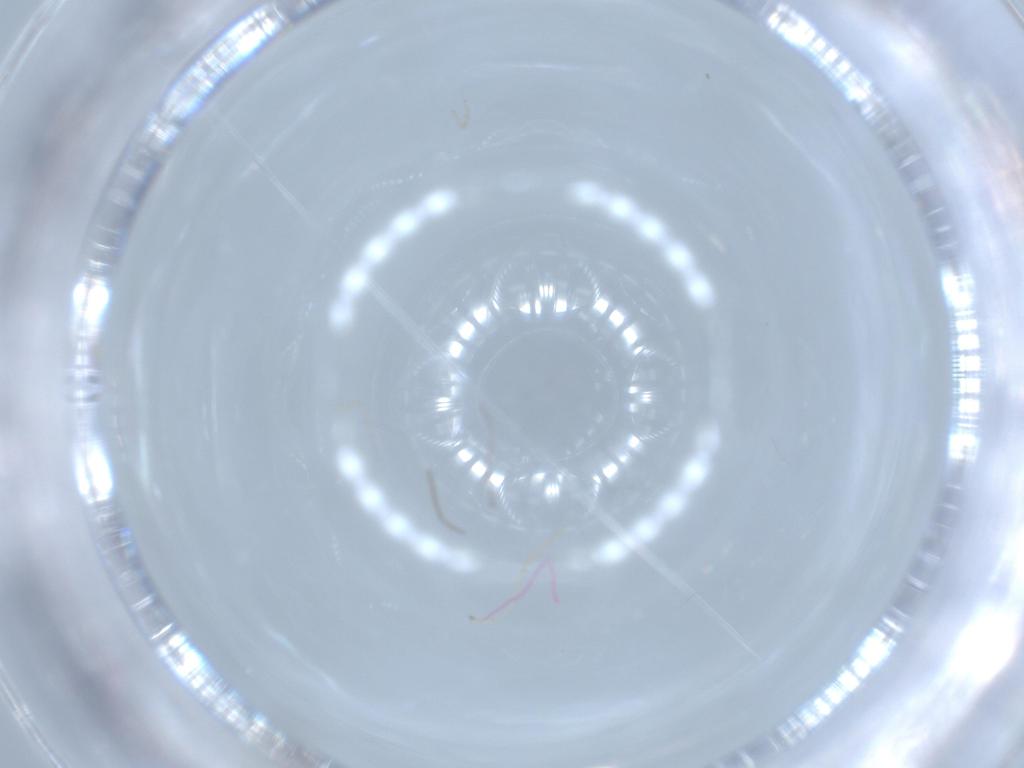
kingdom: Animalia
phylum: Arthropoda
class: Insecta
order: Diptera
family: Cecidomyiidae
